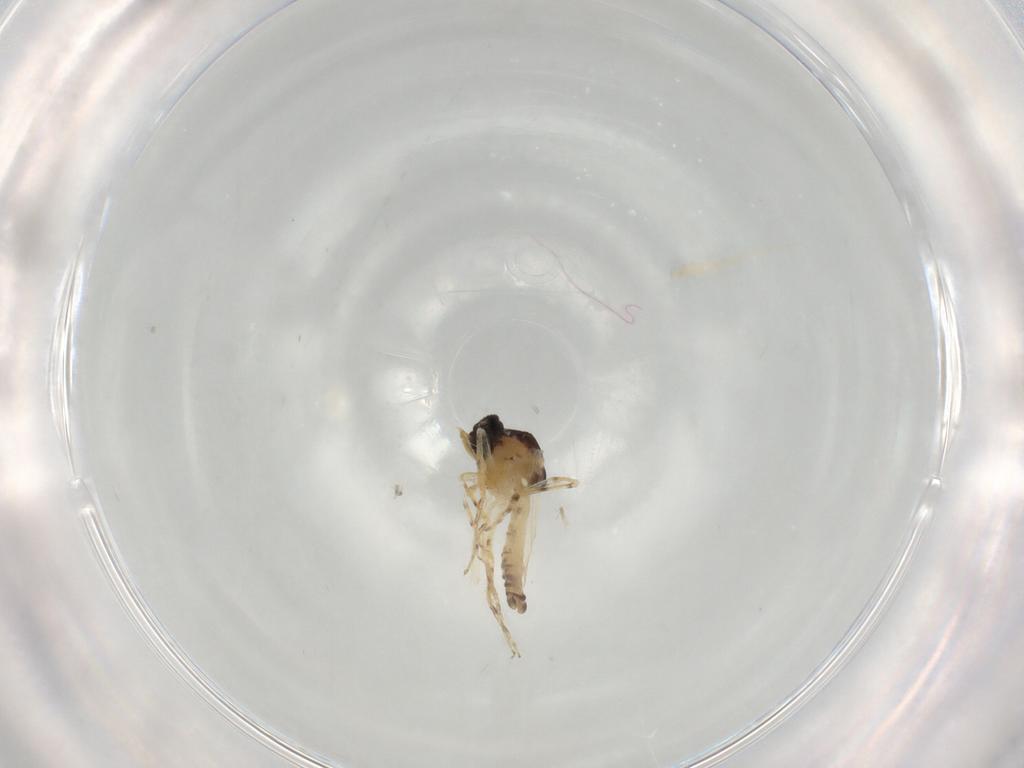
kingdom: Animalia
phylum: Arthropoda
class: Insecta
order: Diptera
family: Ceratopogonidae
